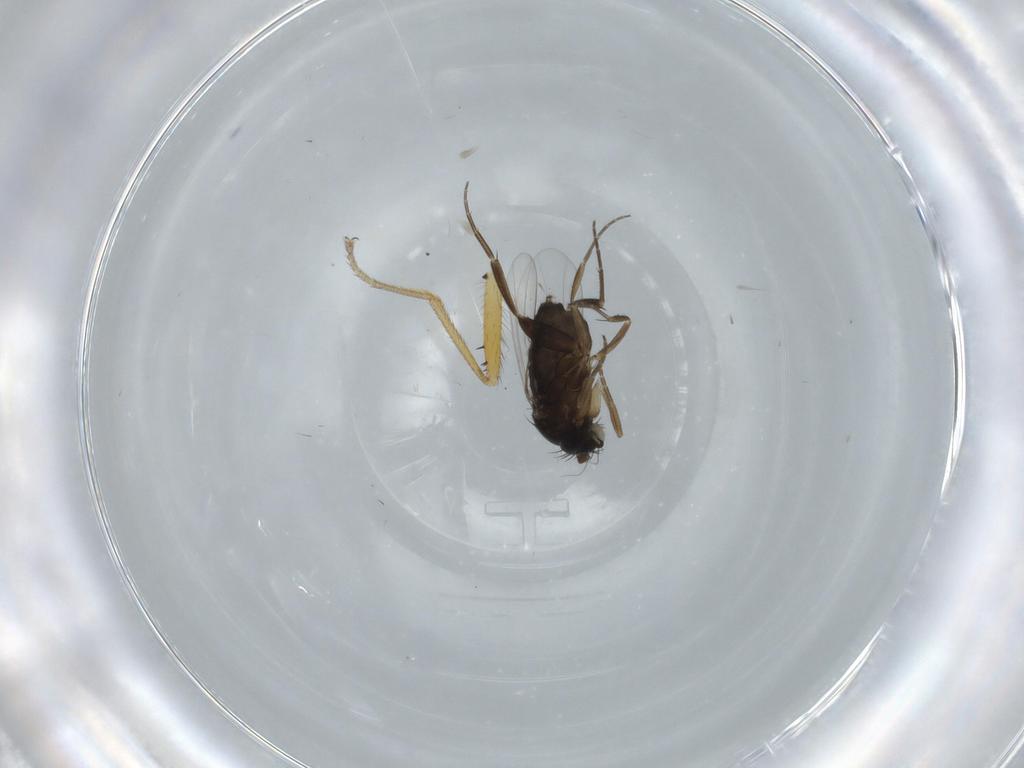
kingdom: Animalia
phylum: Arthropoda
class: Insecta
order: Diptera
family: Phoridae
